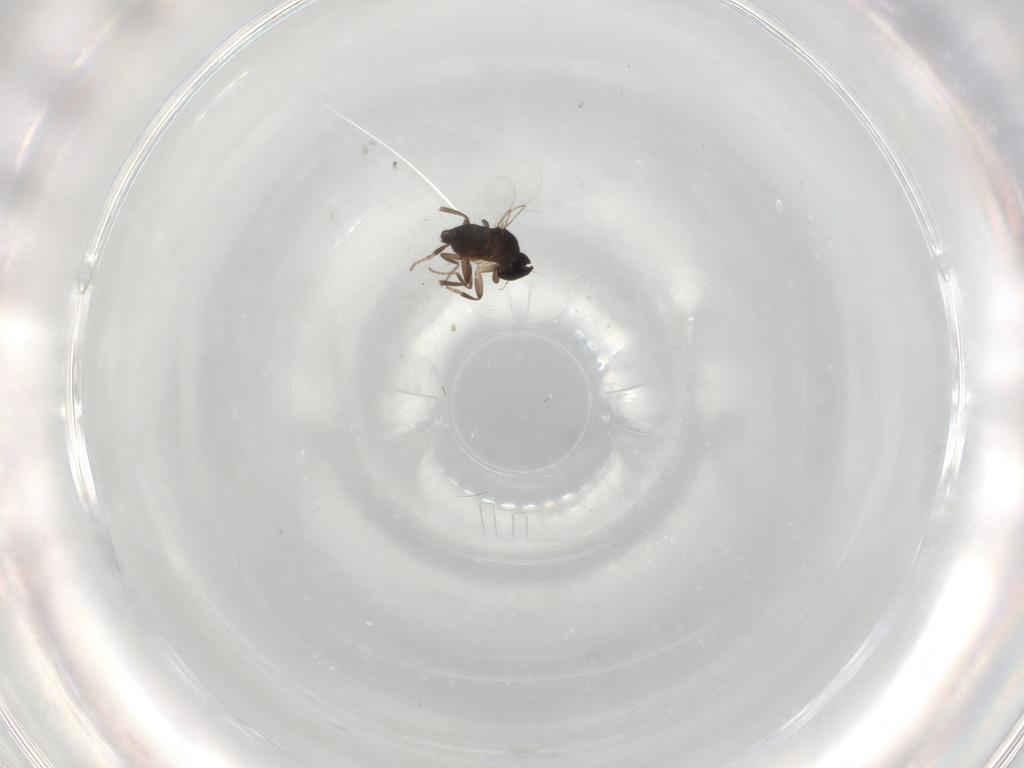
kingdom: Animalia
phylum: Arthropoda
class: Insecta
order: Diptera
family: Phoridae
